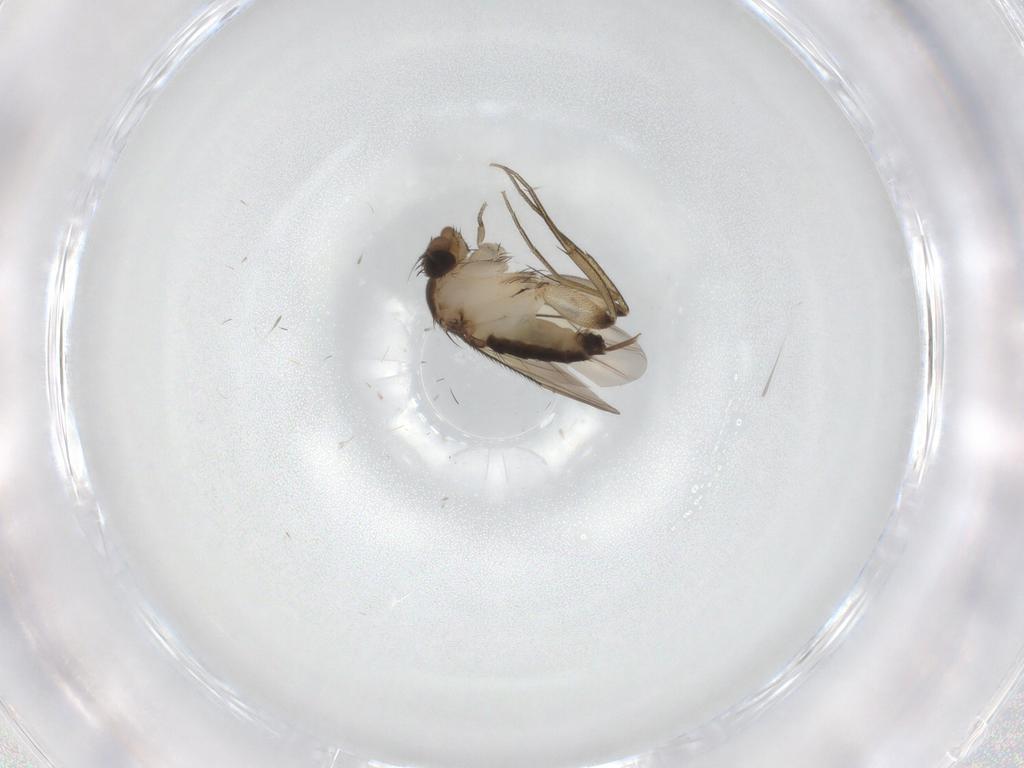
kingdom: Animalia
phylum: Arthropoda
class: Insecta
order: Diptera
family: Phoridae
